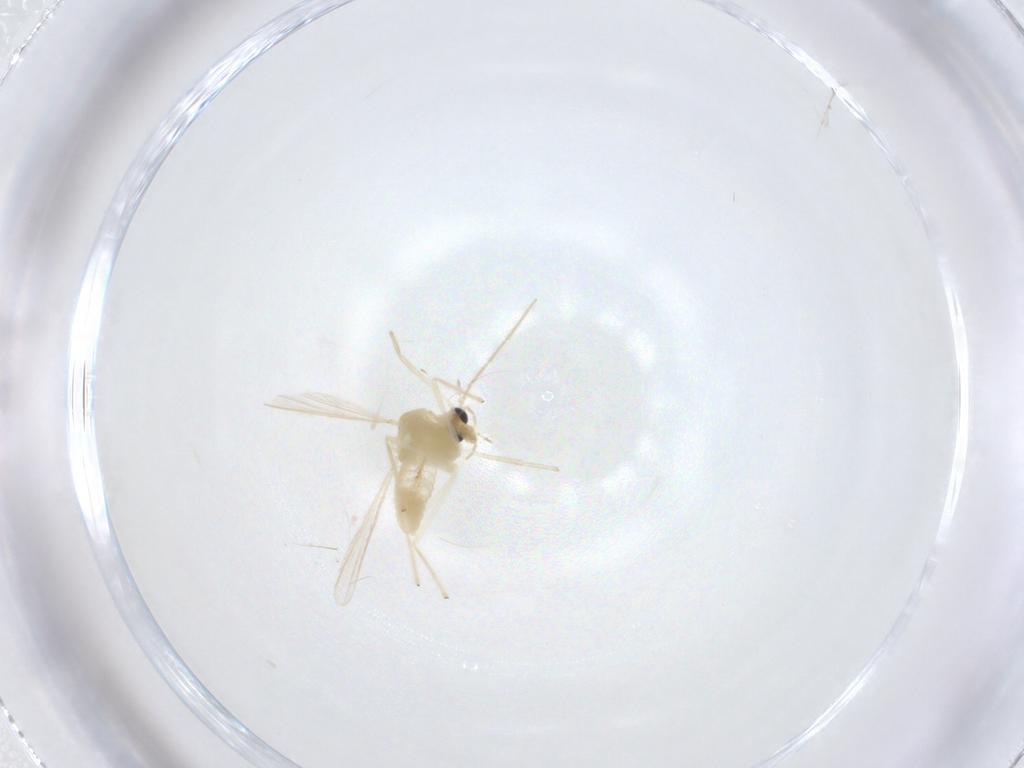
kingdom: Animalia
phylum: Arthropoda
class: Insecta
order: Diptera
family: Chironomidae
